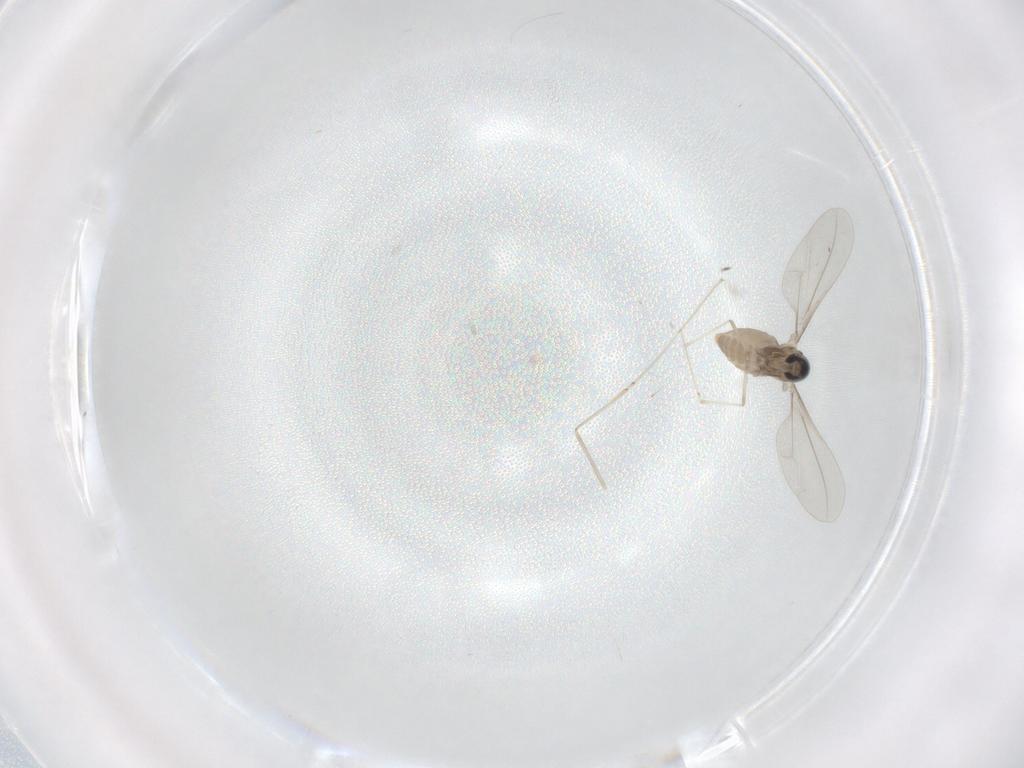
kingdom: Animalia
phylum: Arthropoda
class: Insecta
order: Diptera
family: Cecidomyiidae
